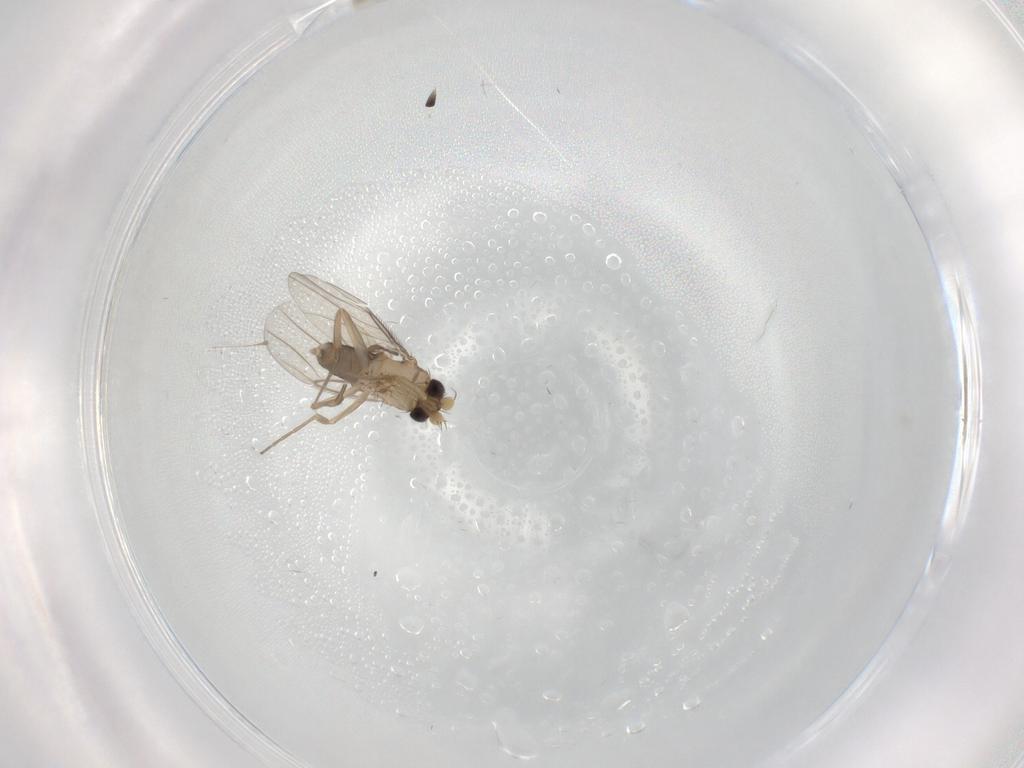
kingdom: Animalia
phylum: Arthropoda
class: Insecta
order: Diptera
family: Phoridae
